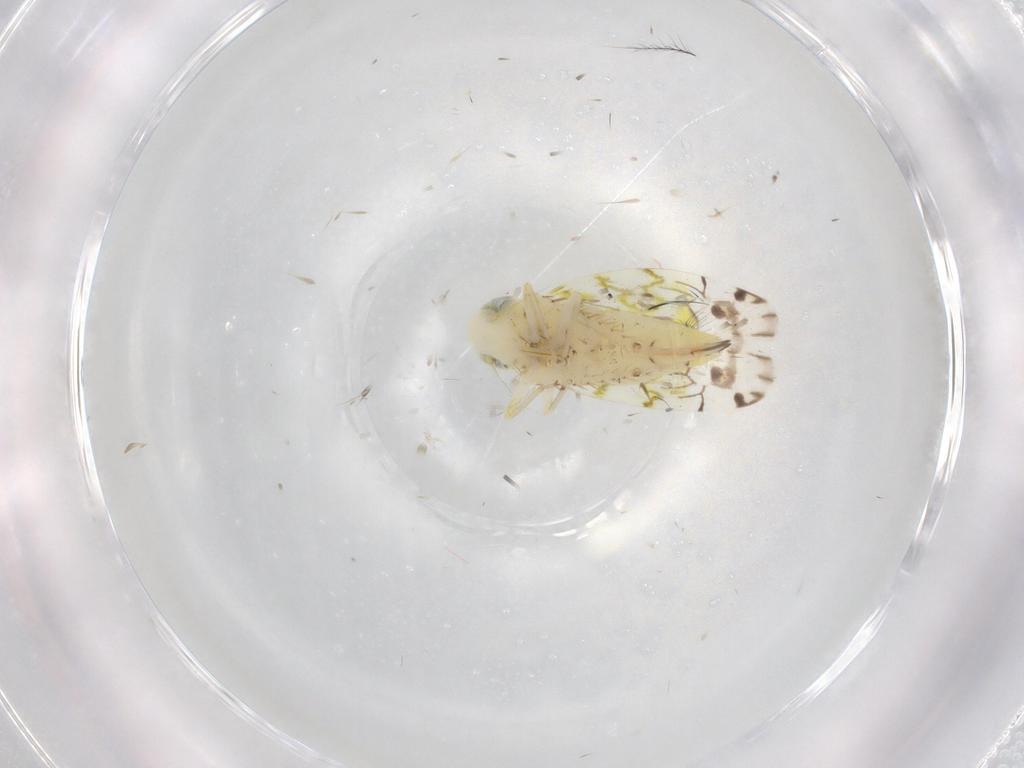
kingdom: Animalia
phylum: Arthropoda
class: Insecta
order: Hemiptera
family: Cicadellidae
